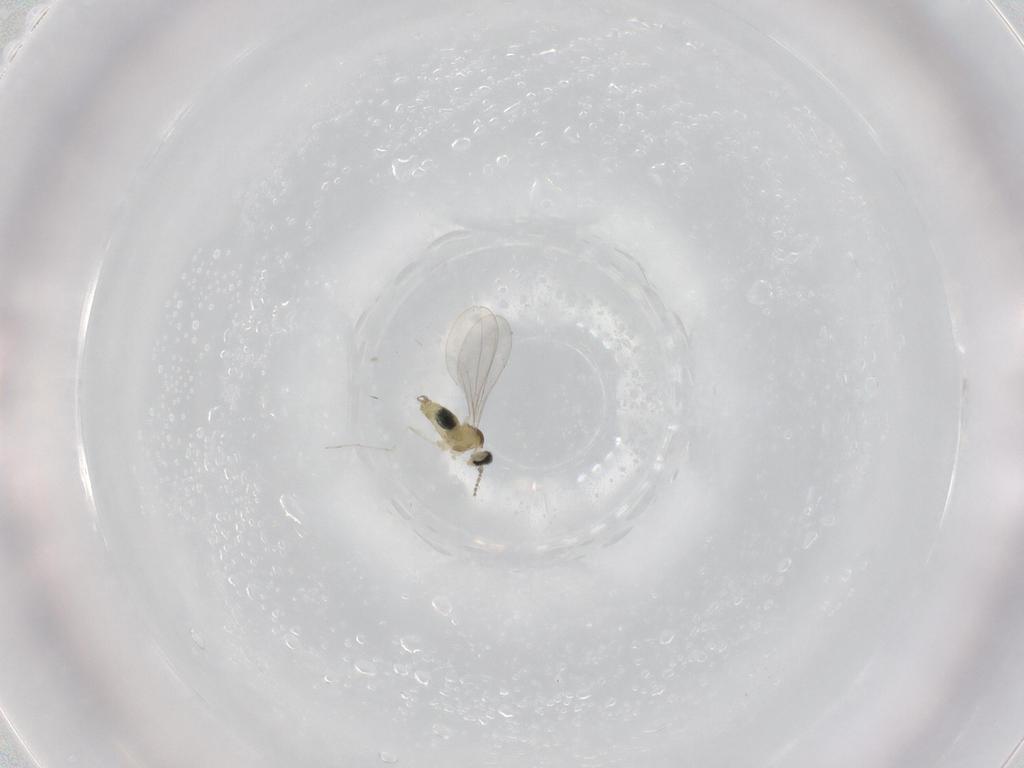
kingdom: Animalia
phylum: Arthropoda
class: Insecta
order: Diptera
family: Cecidomyiidae
